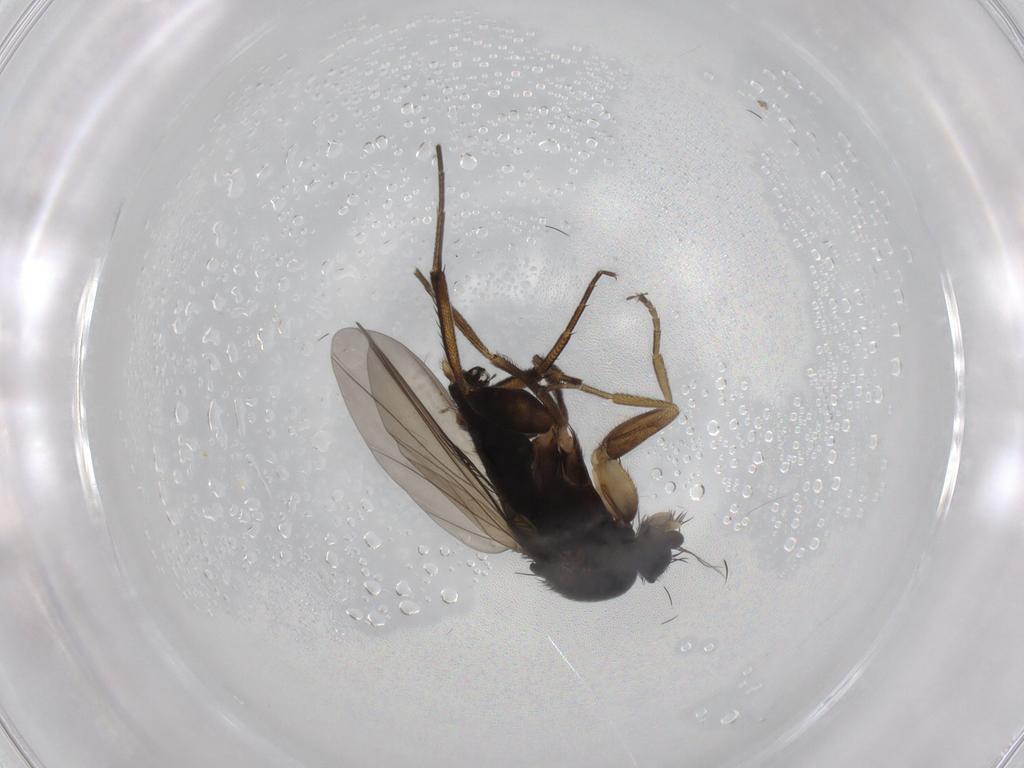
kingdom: Animalia
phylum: Arthropoda
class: Insecta
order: Diptera
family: Phoridae
